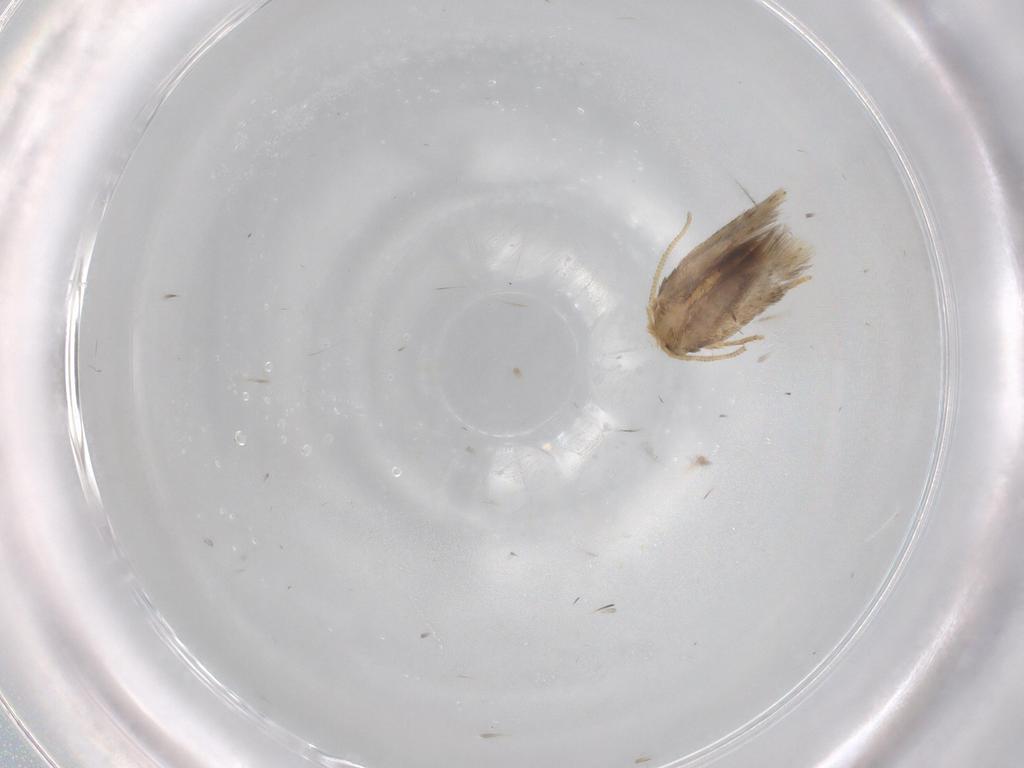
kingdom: Animalia
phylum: Arthropoda
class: Insecta
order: Lepidoptera
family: Nepticulidae
